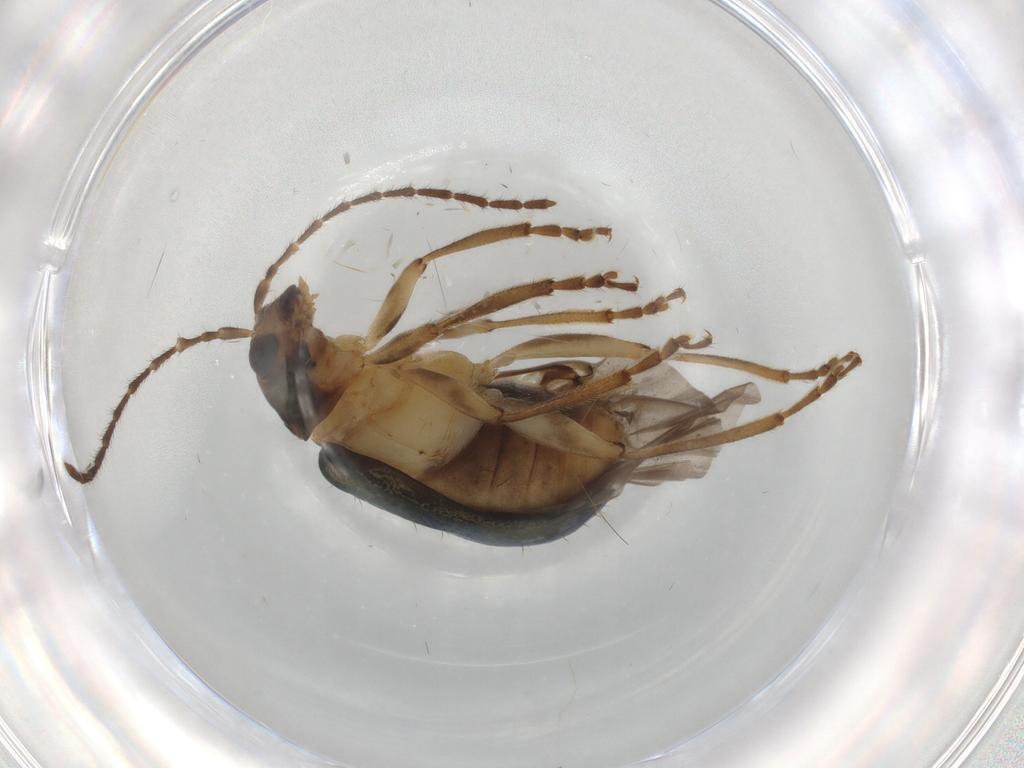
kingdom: Animalia
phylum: Arthropoda
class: Insecta
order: Coleoptera
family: Chrysomelidae
